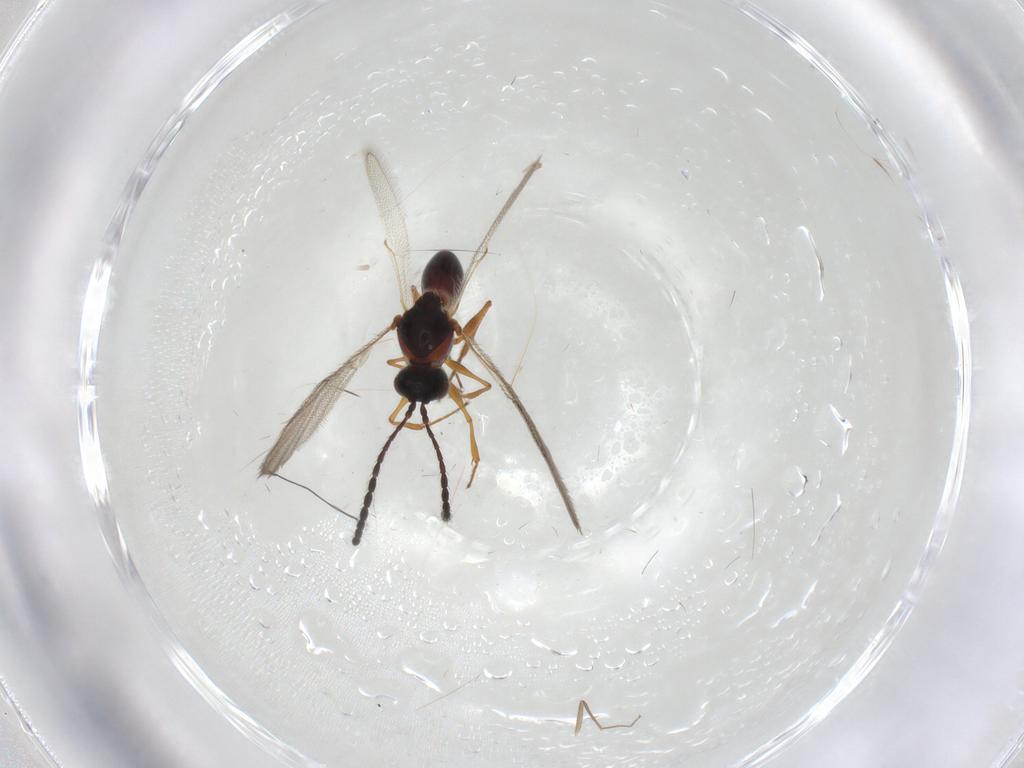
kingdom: Animalia
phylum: Arthropoda
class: Insecta
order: Hymenoptera
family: Figitidae
